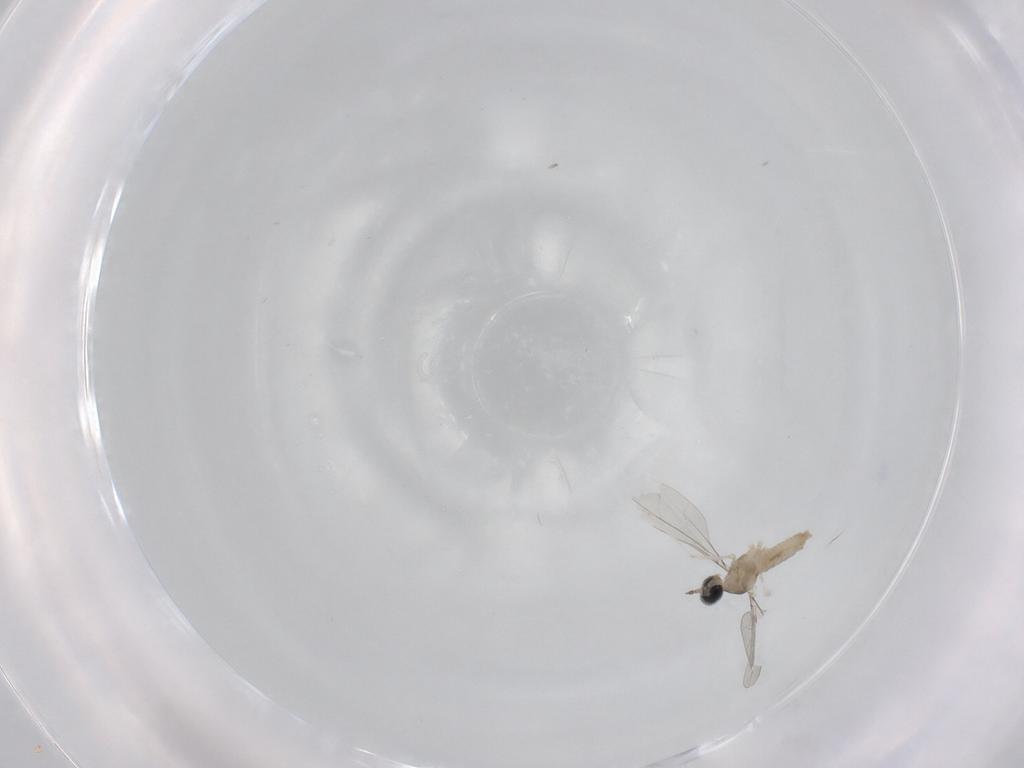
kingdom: Animalia
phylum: Arthropoda
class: Insecta
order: Diptera
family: Cecidomyiidae
